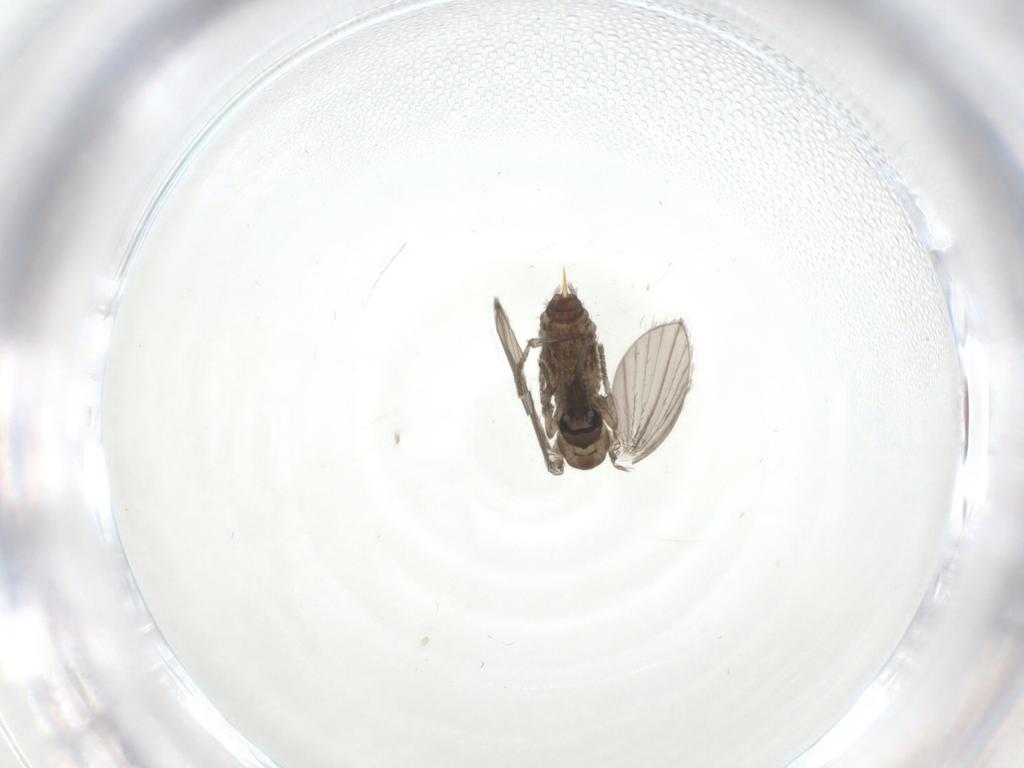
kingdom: Animalia
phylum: Arthropoda
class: Insecta
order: Diptera
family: Psychodidae
